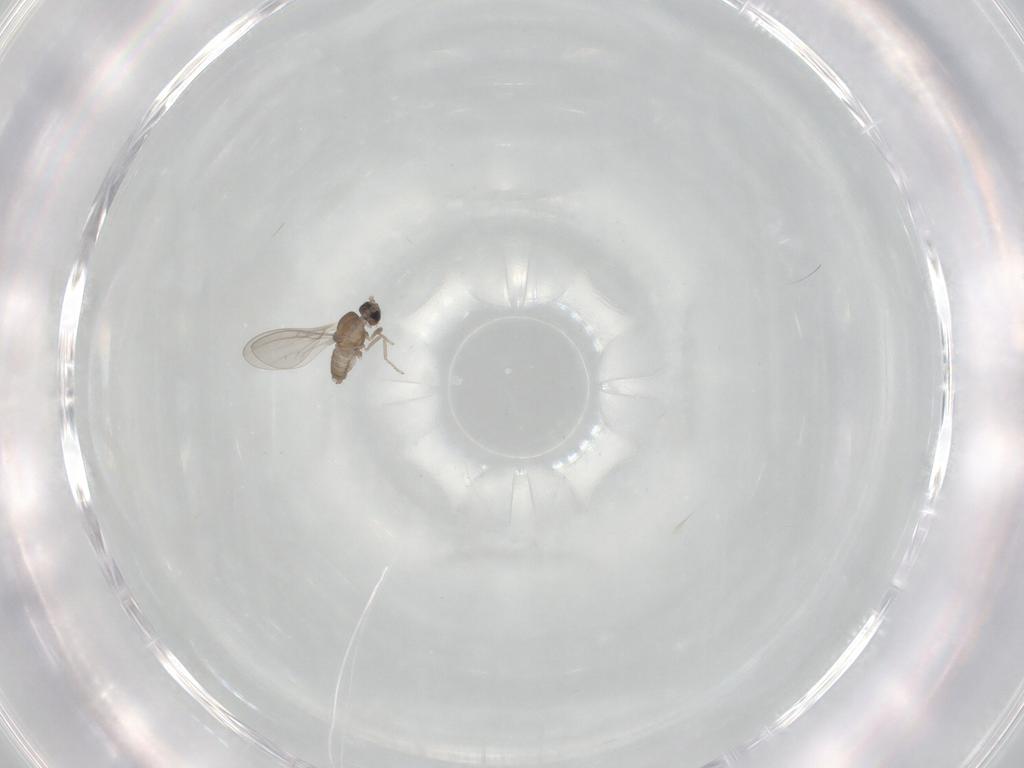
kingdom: Animalia
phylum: Arthropoda
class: Insecta
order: Diptera
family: Cecidomyiidae
